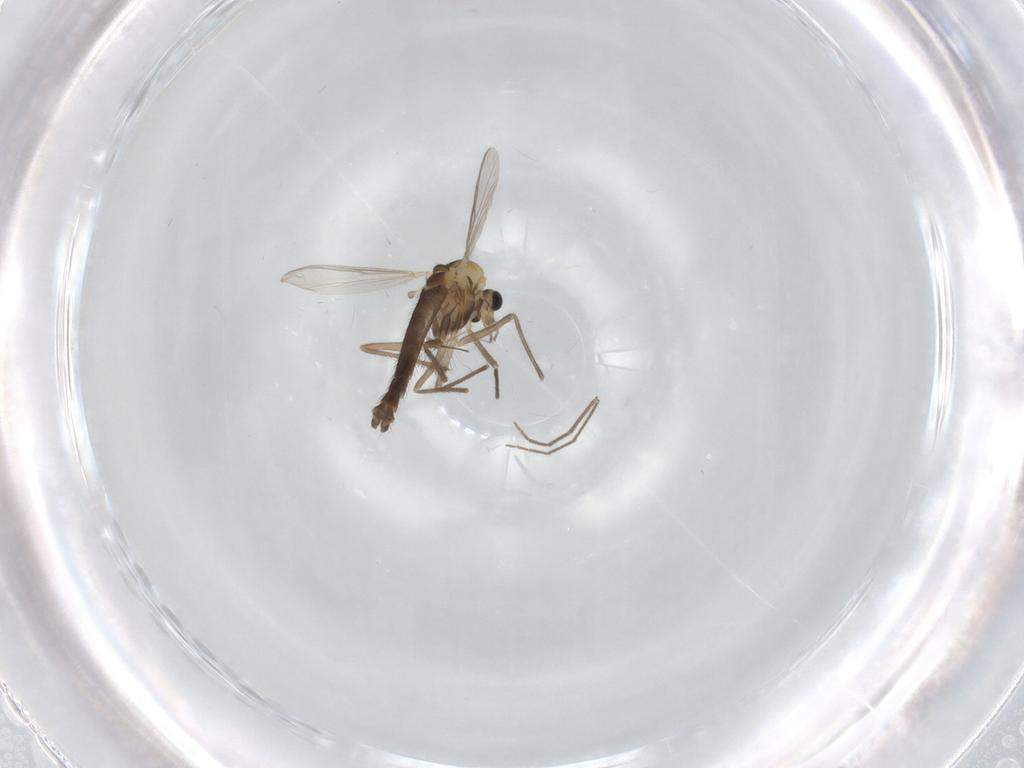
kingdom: Animalia
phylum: Arthropoda
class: Insecta
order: Diptera
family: Chironomidae
